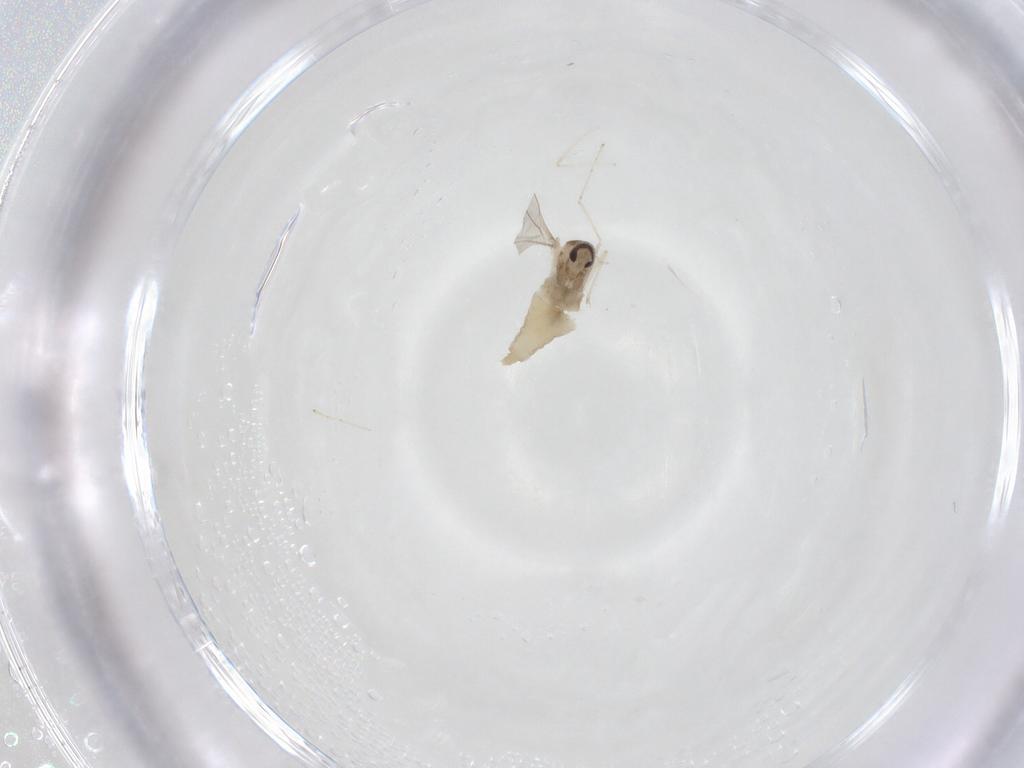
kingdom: Animalia
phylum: Arthropoda
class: Insecta
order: Diptera
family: Cecidomyiidae
